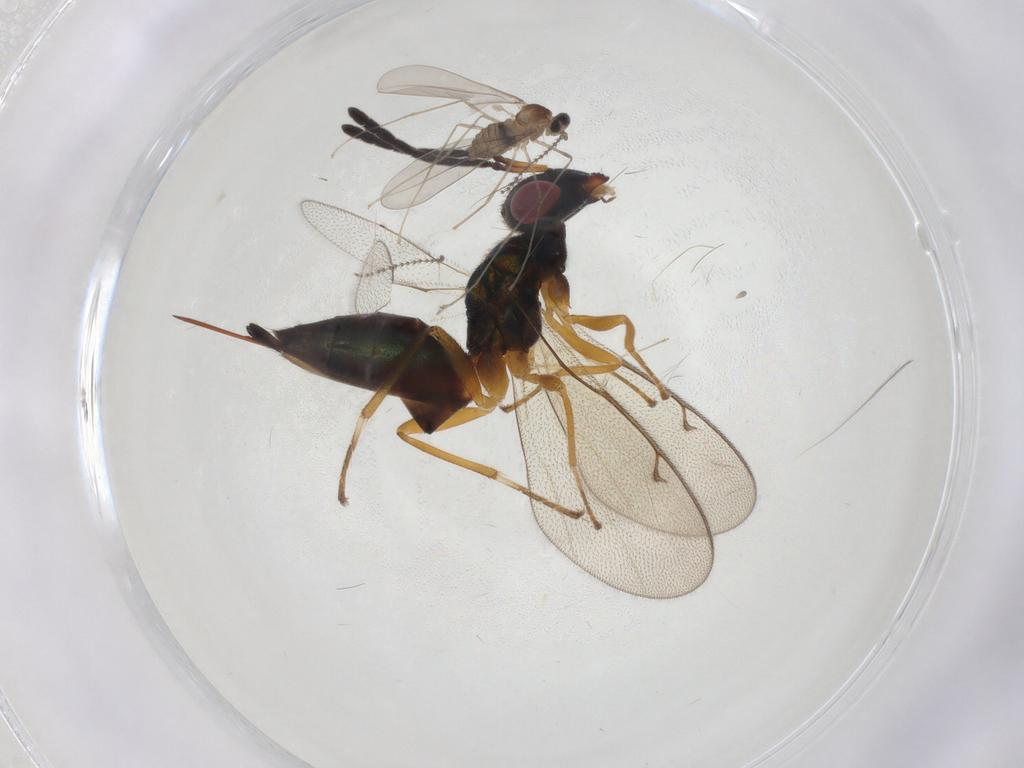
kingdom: Animalia
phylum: Arthropoda
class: Insecta
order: Hymenoptera
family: Pteromalidae
